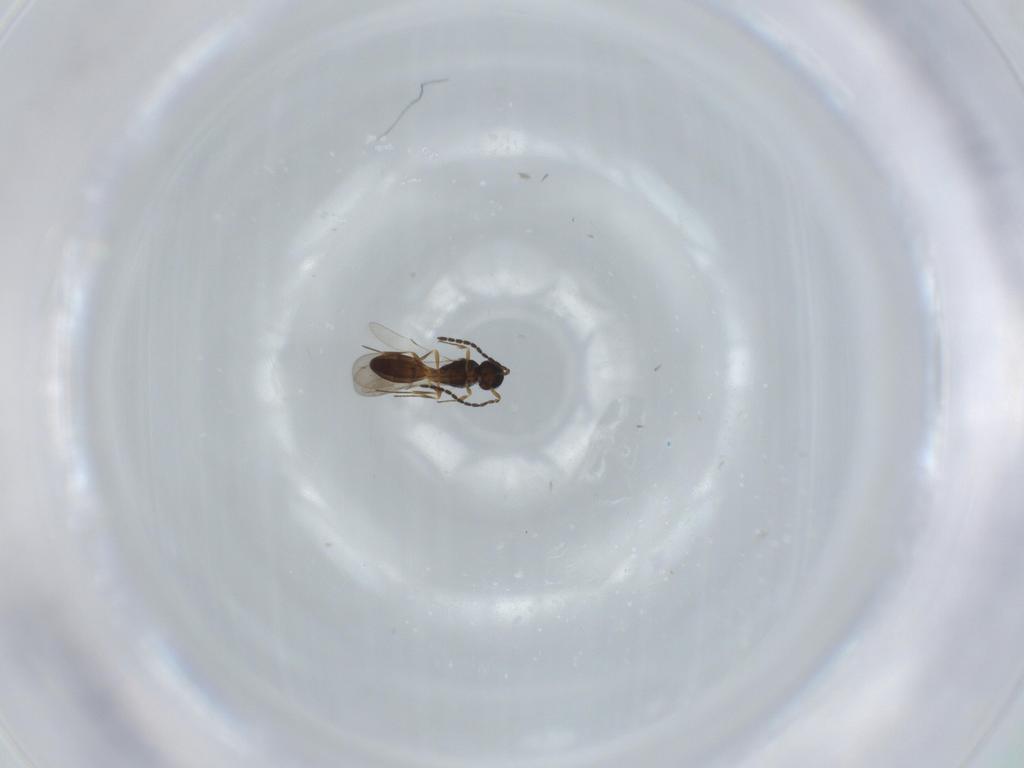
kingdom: Animalia
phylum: Arthropoda
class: Insecta
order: Hymenoptera
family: Scelionidae
